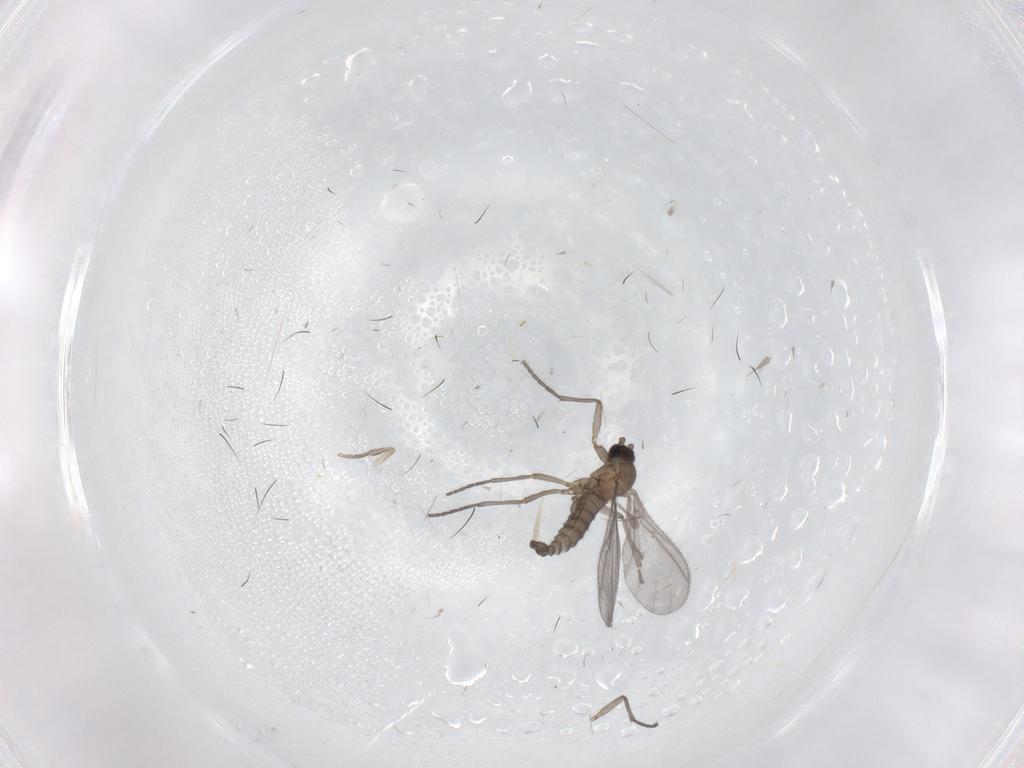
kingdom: Animalia
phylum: Arthropoda
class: Insecta
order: Diptera
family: Sciaridae
